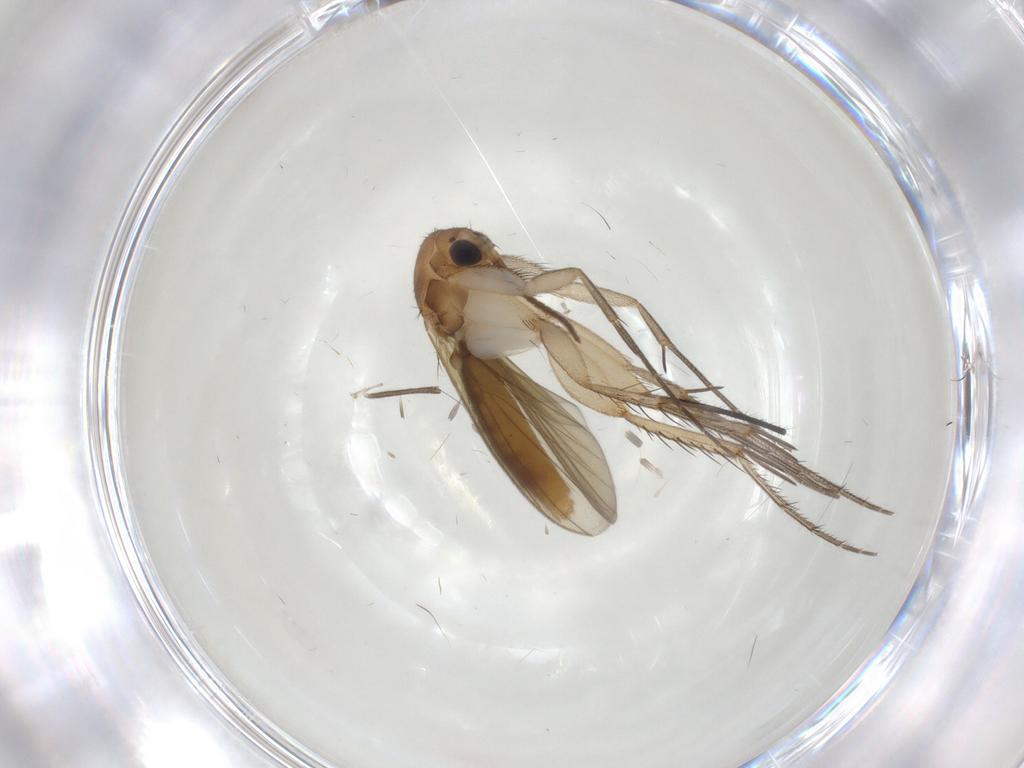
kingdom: Animalia
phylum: Arthropoda
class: Insecta
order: Diptera
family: Mycetophilidae
